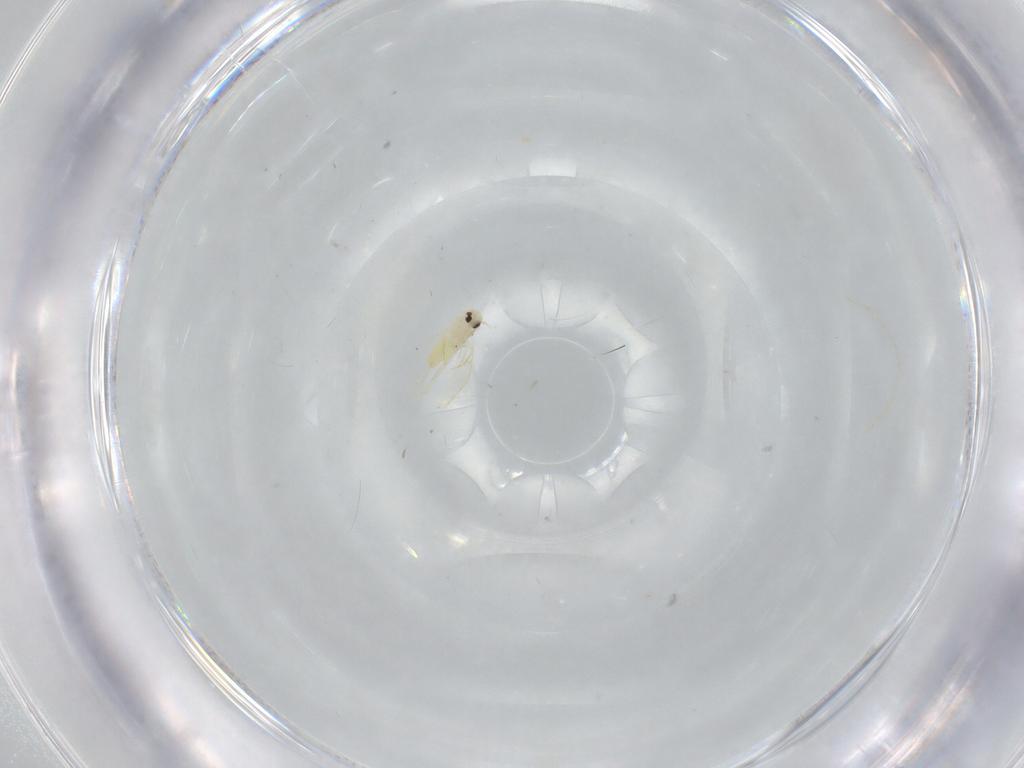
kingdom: Animalia
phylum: Arthropoda
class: Insecta
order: Hemiptera
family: Aleyrodidae
